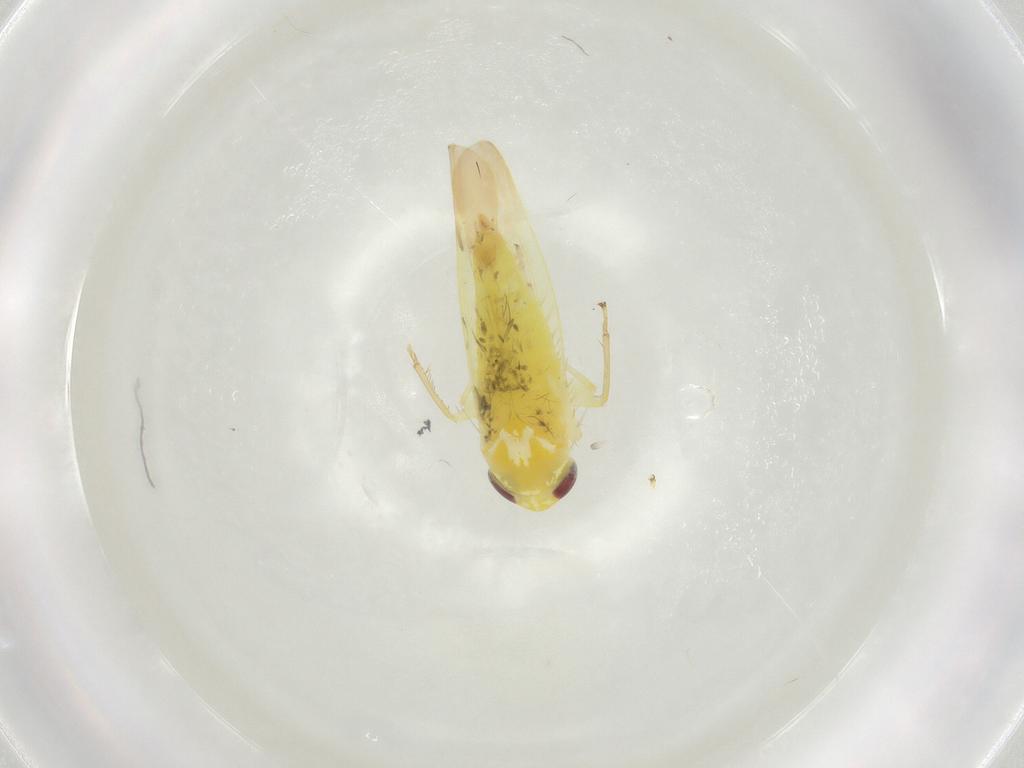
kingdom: Animalia
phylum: Arthropoda
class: Insecta
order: Hemiptera
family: Cicadellidae
